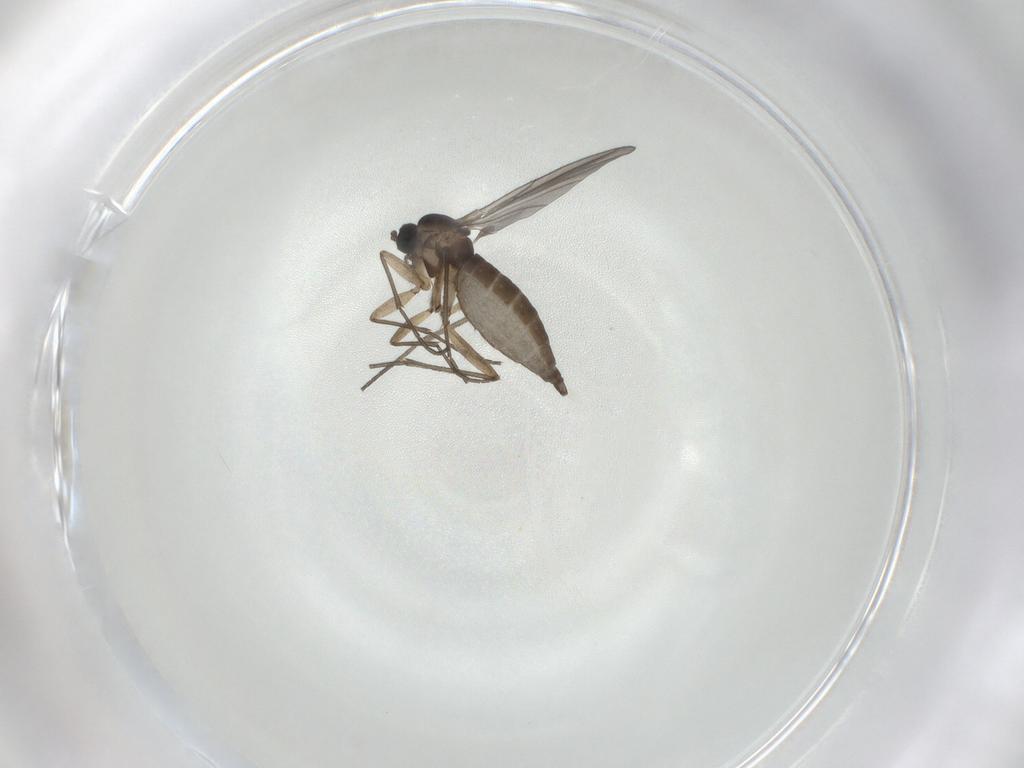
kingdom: Animalia
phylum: Arthropoda
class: Insecta
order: Diptera
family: Sciaridae
